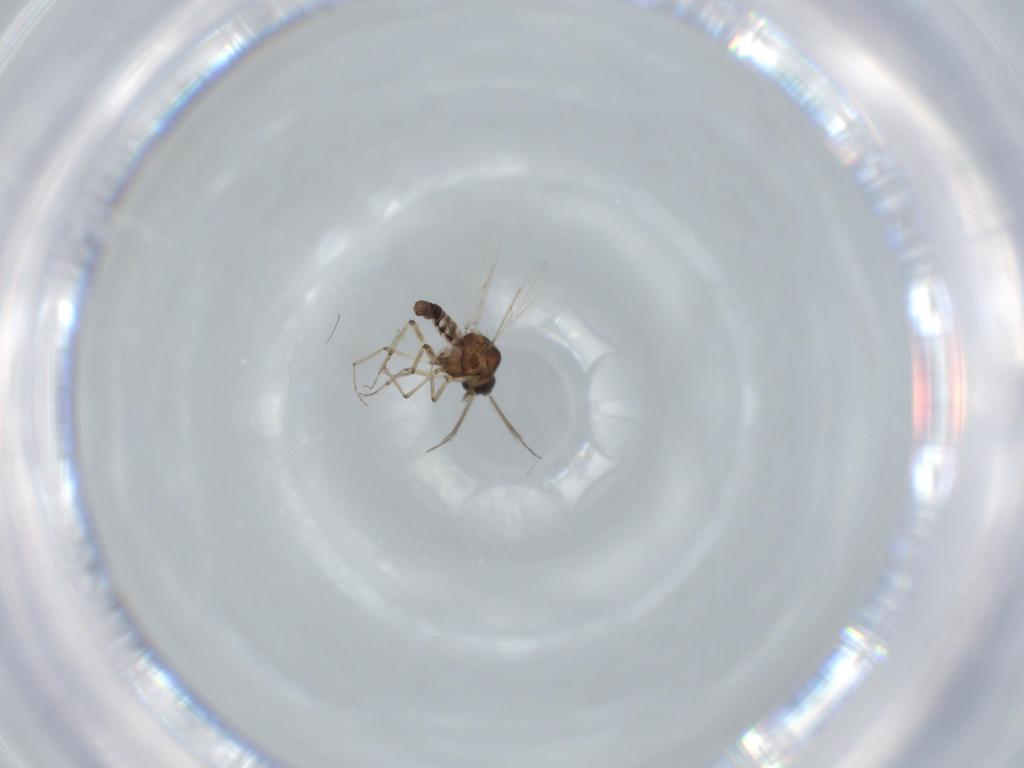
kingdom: Animalia
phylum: Arthropoda
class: Insecta
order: Diptera
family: Dolichopodidae
